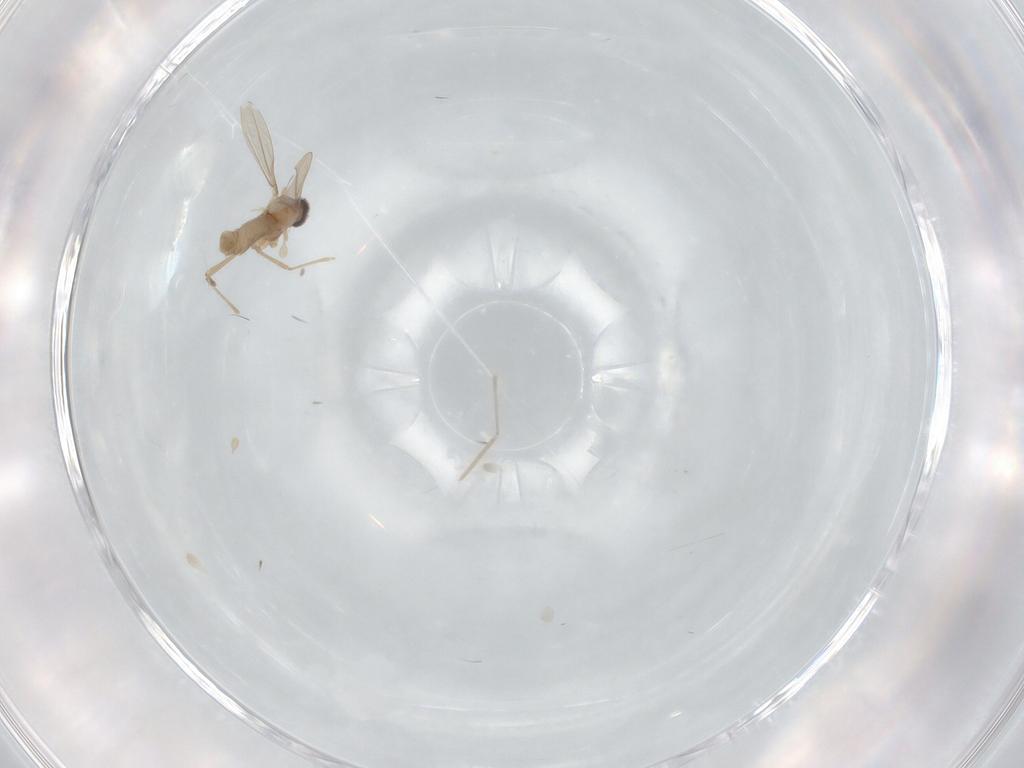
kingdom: Animalia
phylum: Arthropoda
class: Insecta
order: Diptera
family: Cecidomyiidae
